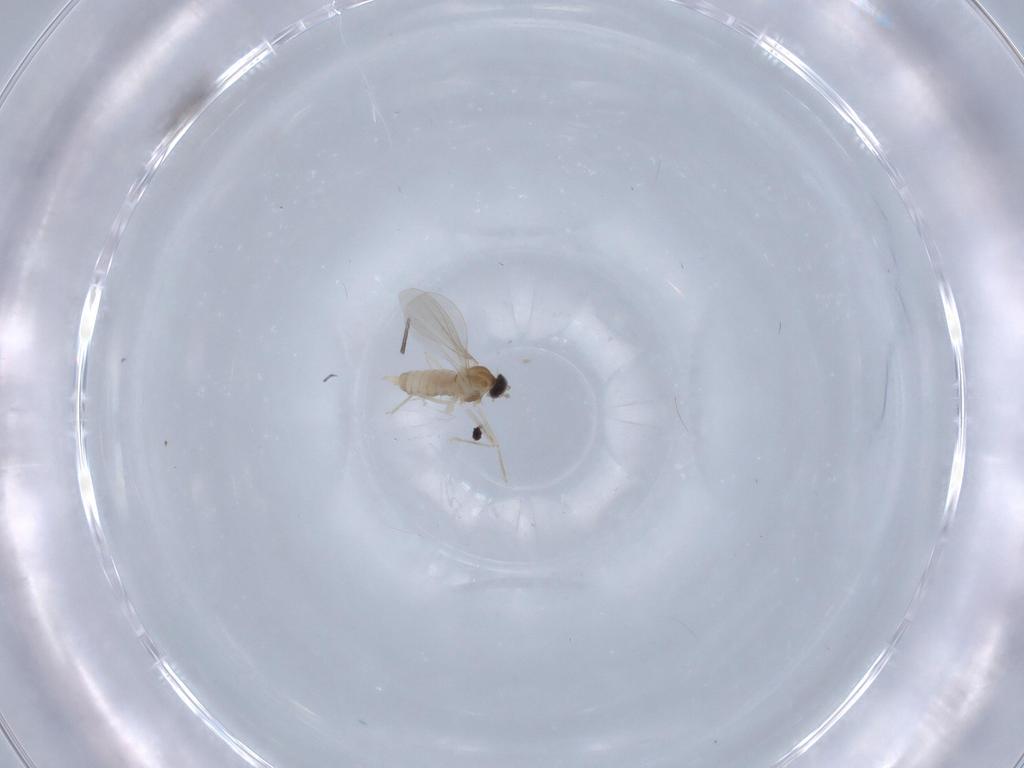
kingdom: Animalia
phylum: Arthropoda
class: Insecta
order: Diptera
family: Cecidomyiidae
